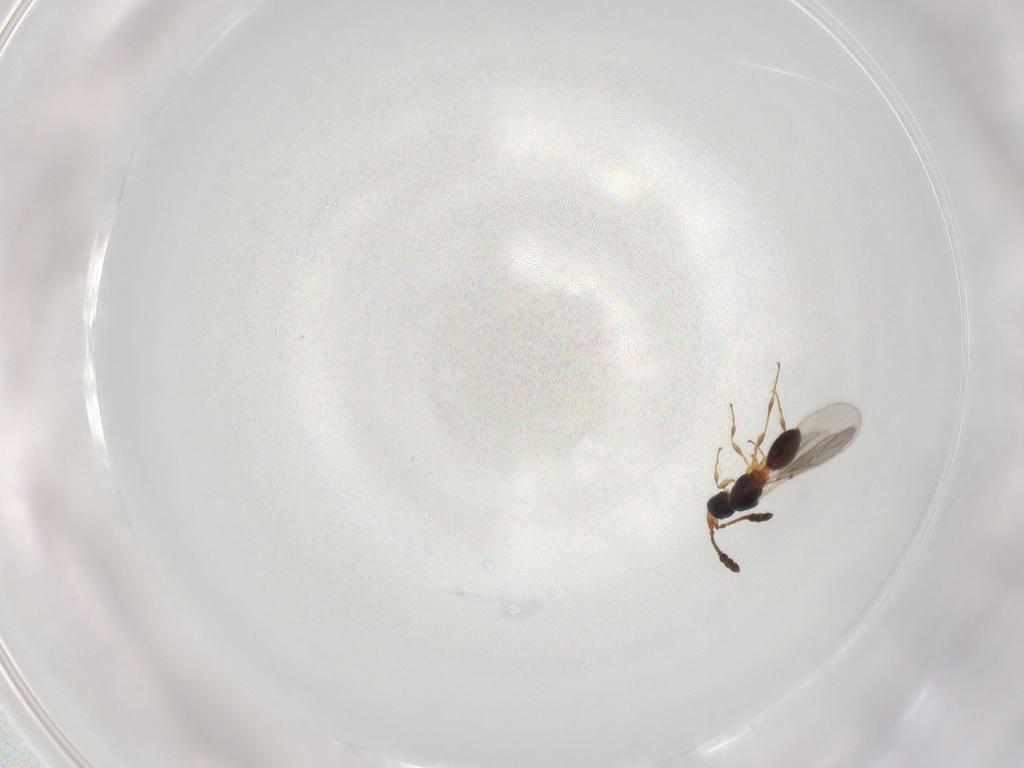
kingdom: Animalia
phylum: Arthropoda
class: Insecta
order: Hymenoptera
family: Diapriidae
